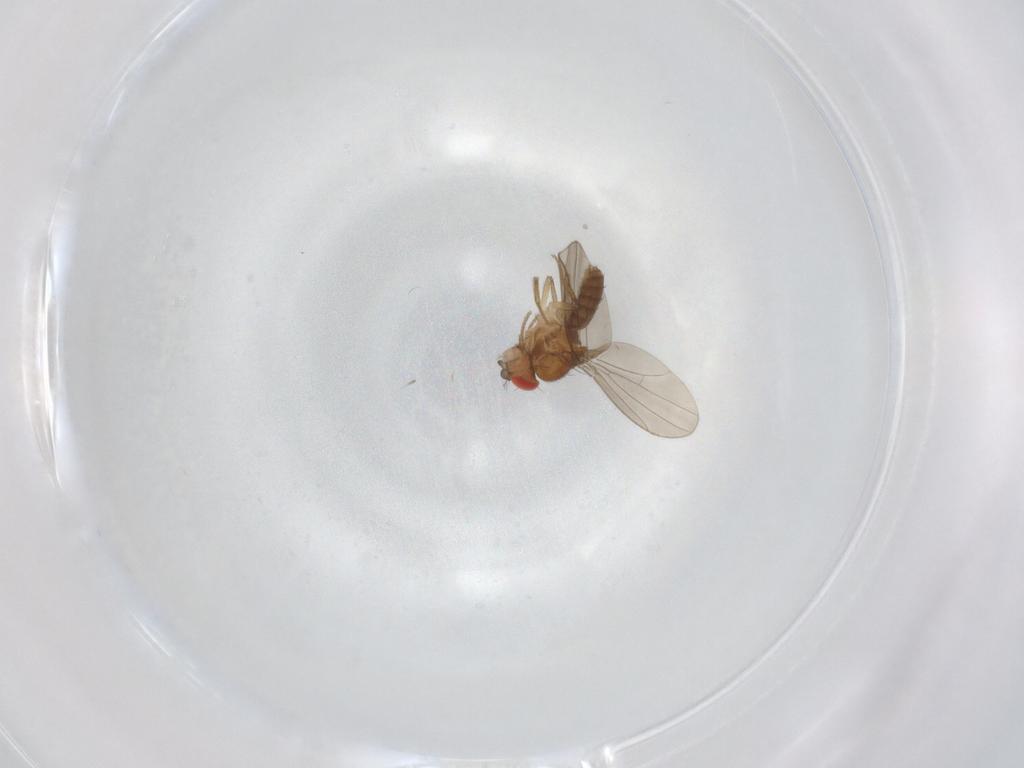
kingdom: Animalia
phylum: Arthropoda
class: Insecta
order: Diptera
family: Drosophilidae
